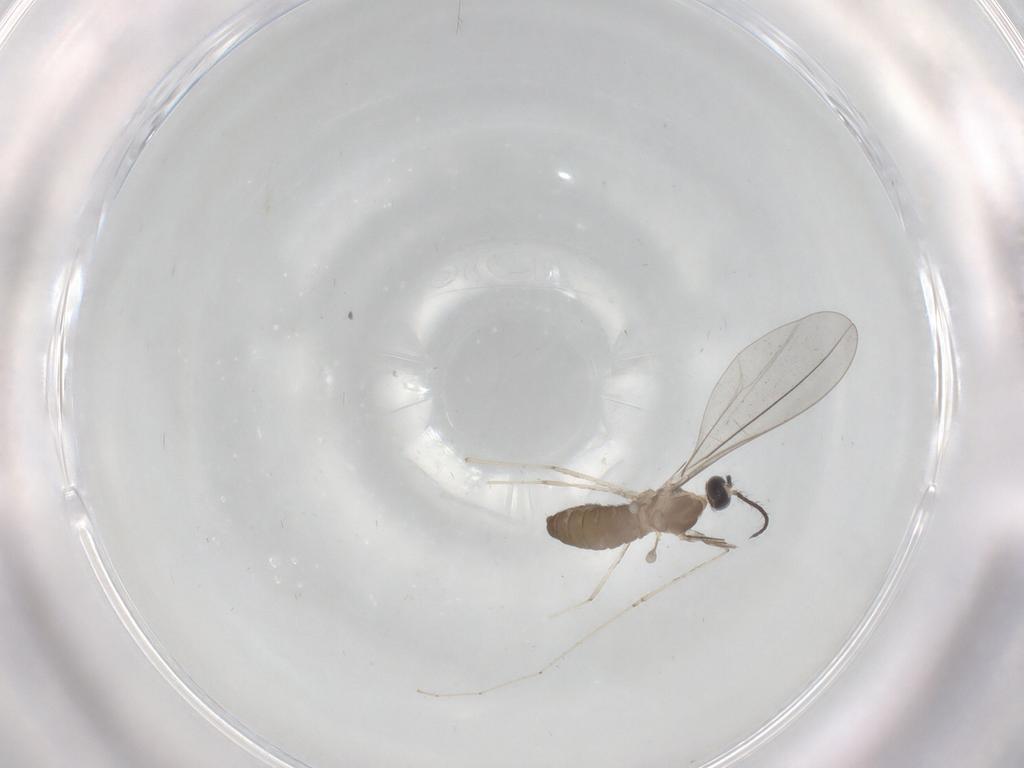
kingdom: Animalia
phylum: Arthropoda
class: Insecta
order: Diptera
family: Cecidomyiidae
